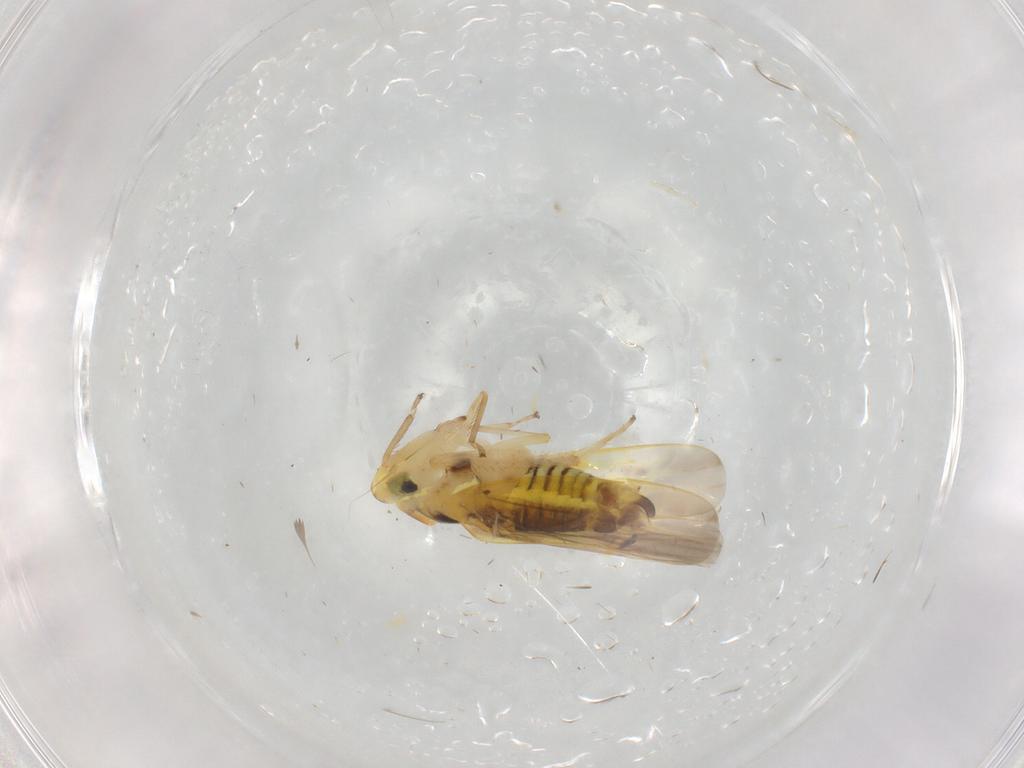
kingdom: Animalia
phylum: Arthropoda
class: Insecta
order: Hemiptera
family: Cicadellidae
